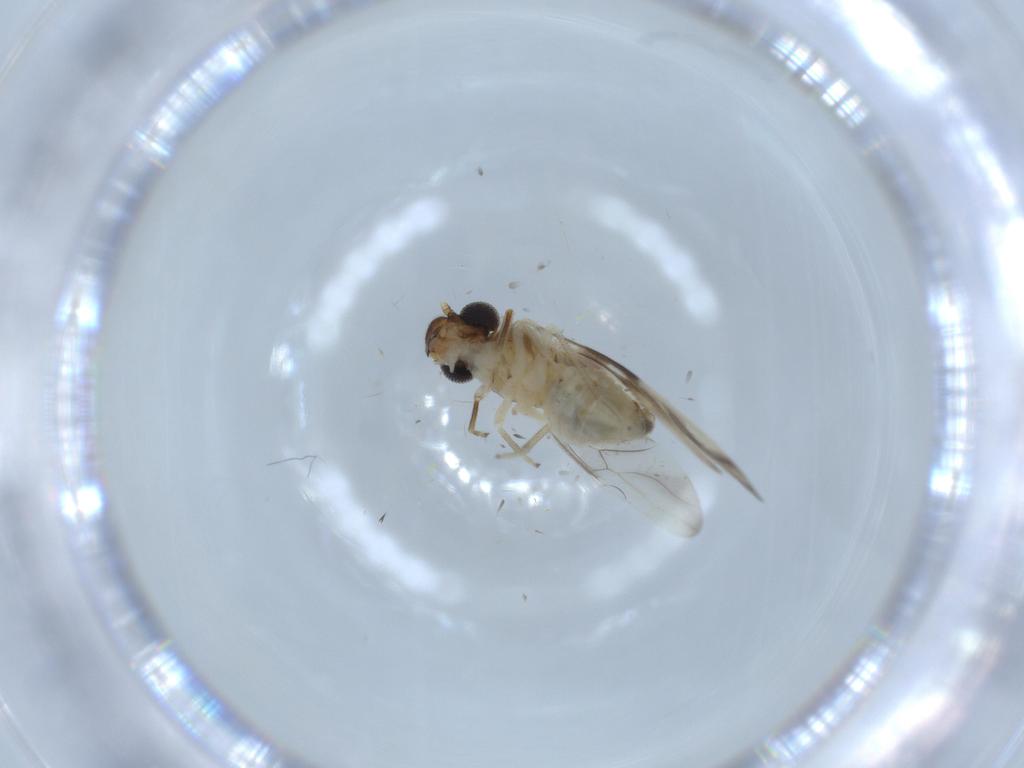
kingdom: Animalia
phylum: Arthropoda
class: Insecta
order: Psocodea
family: Caeciliusidae
